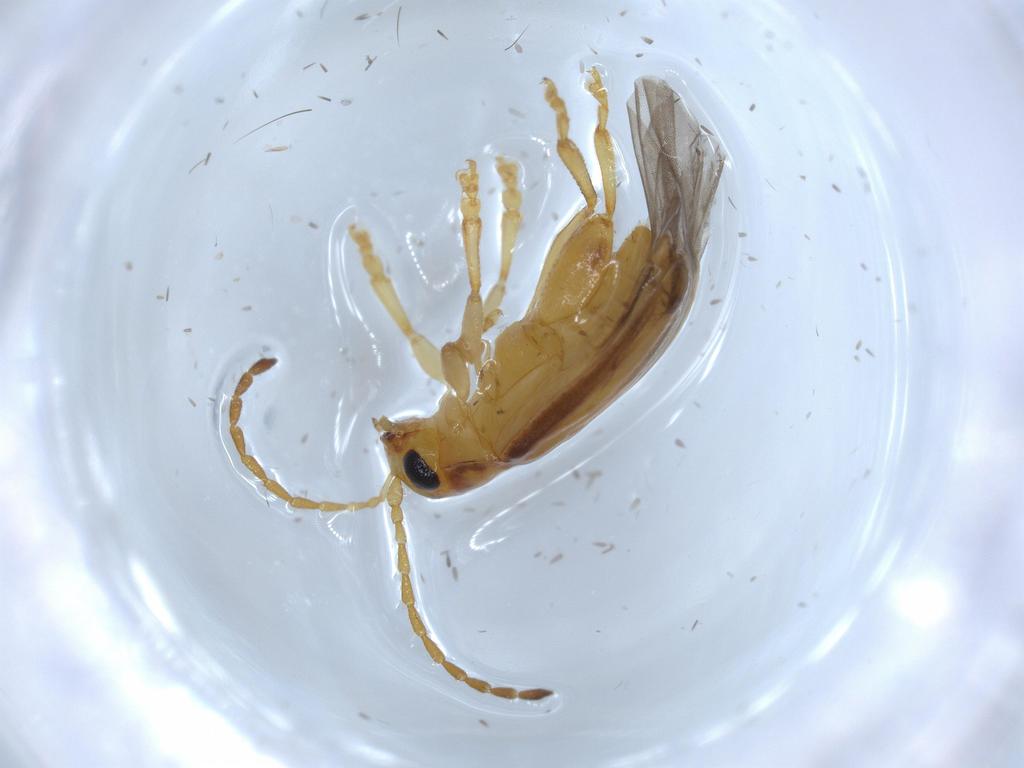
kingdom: Animalia
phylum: Arthropoda
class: Insecta
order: Coleoptera
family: Chrysomelidae
